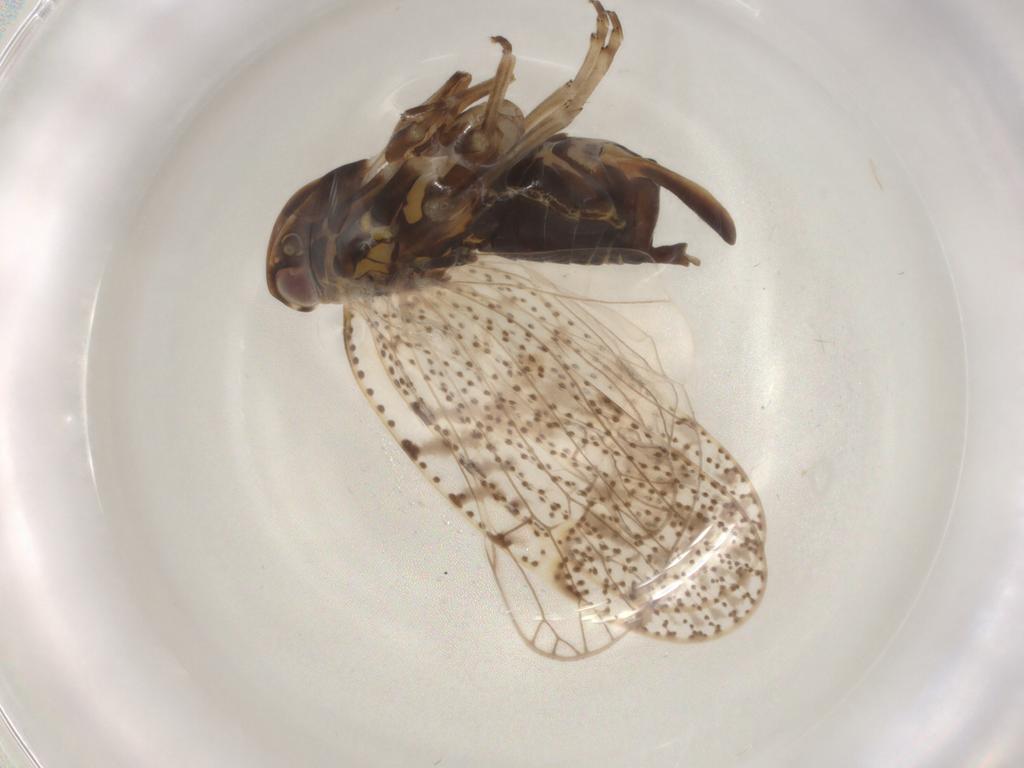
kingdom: Animalia
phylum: Arthropoda
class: Insecta
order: Hemiptera
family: Cixiidae
